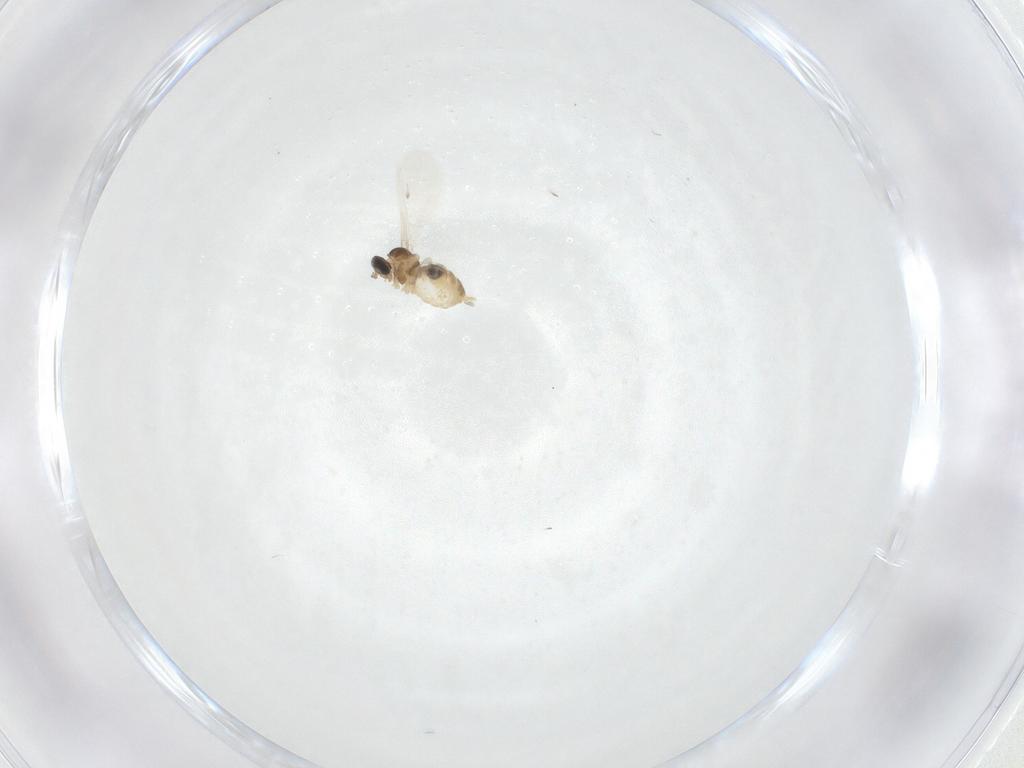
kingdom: Animalia
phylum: Arthropoda
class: Insecta
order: Diptera
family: Cecidomyiidae
